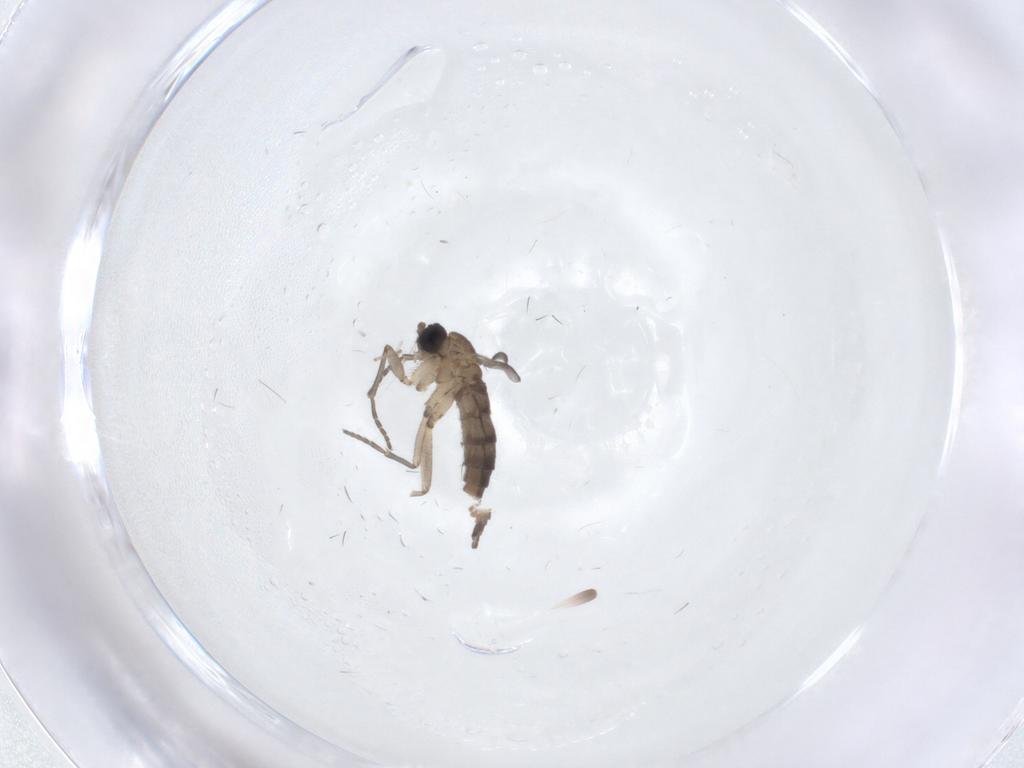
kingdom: Animalia
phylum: Arthropoda
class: Insecta
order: Diptera
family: Sciaridae
